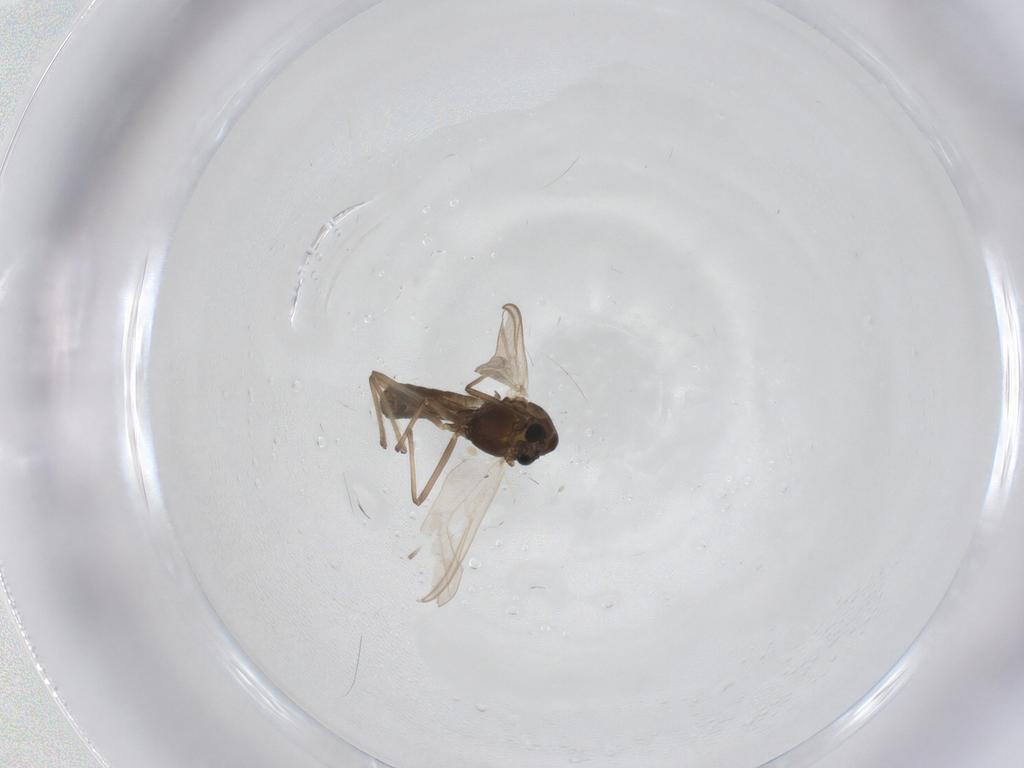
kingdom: Animalia
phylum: Arthropoda
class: Insecta
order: Diptera
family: Chironomidae
